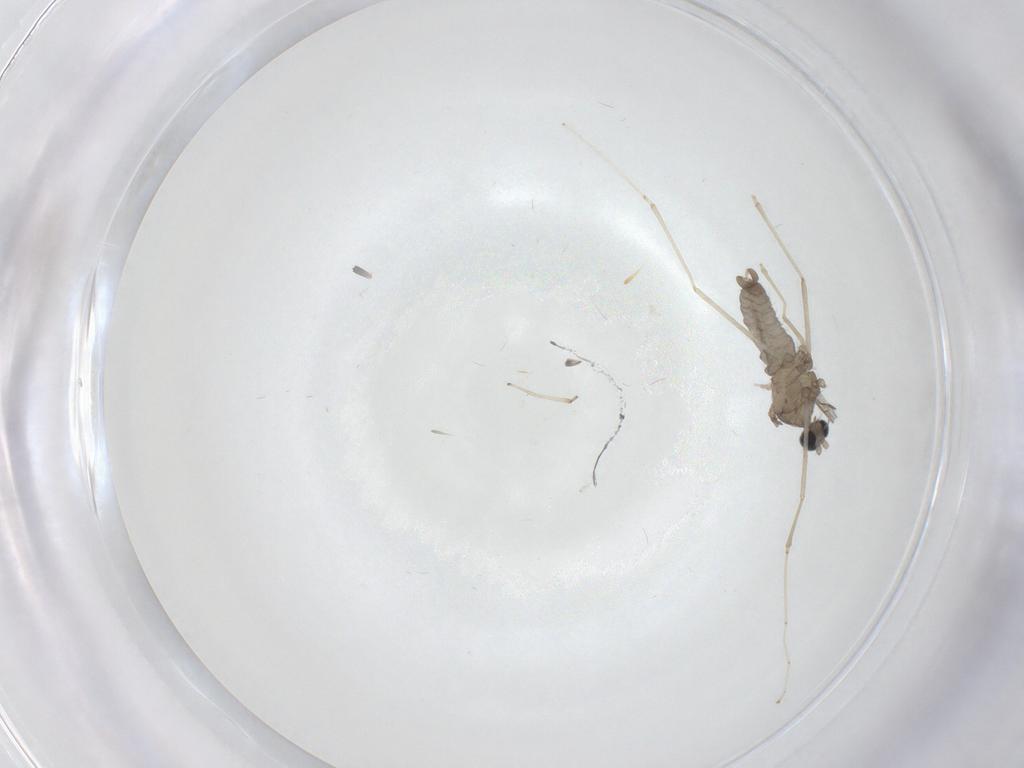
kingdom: Animalia
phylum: Arthropoda
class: Insecta
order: Diptera
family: Cecidomyiidae
